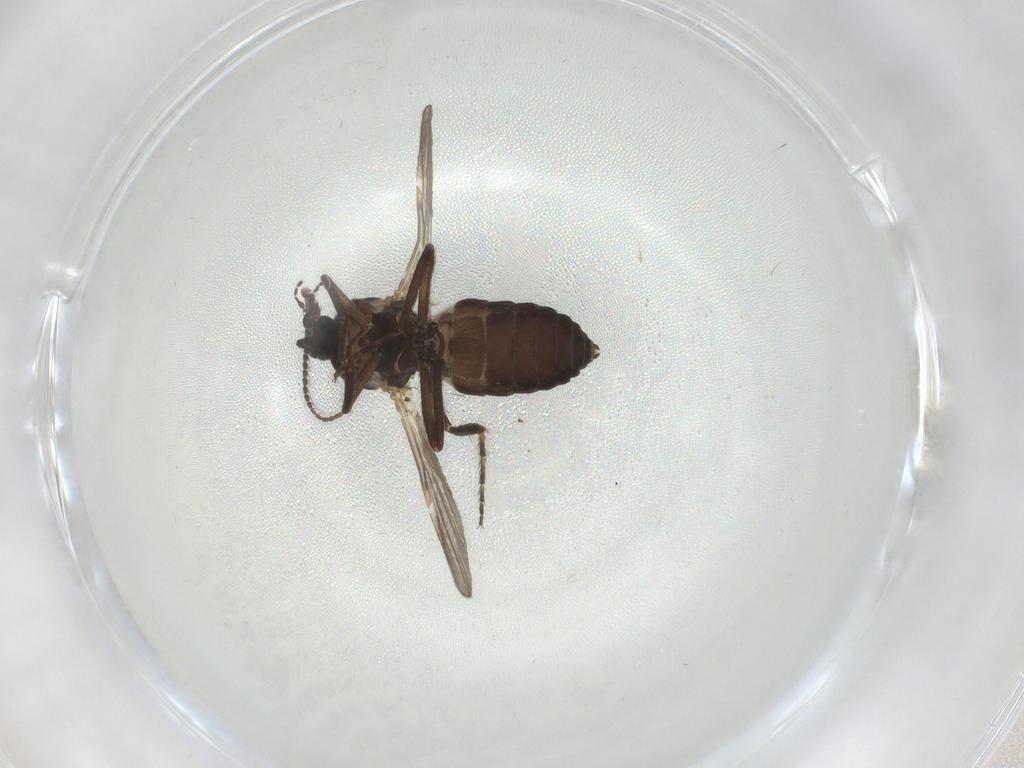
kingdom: Animalia
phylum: Arthropoda
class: Insecta
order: Diptera
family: Ceratopogonidae
